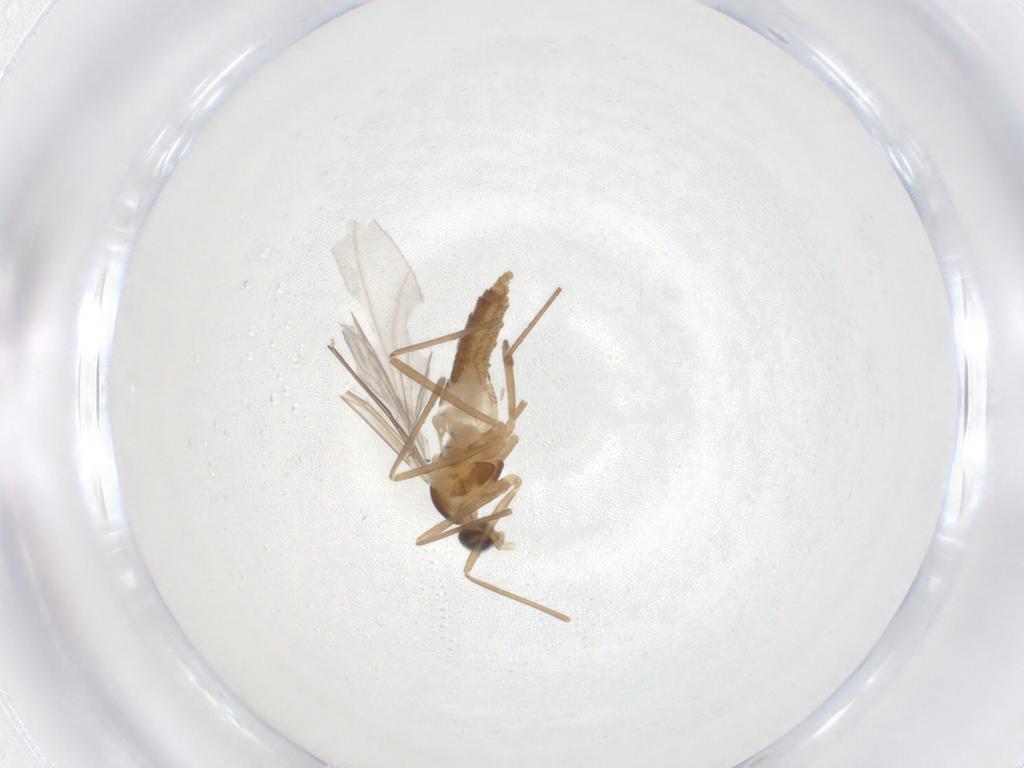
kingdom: Animalia
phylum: Arthropoda
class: Insecta
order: Diptera
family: Cecidomyiidae
